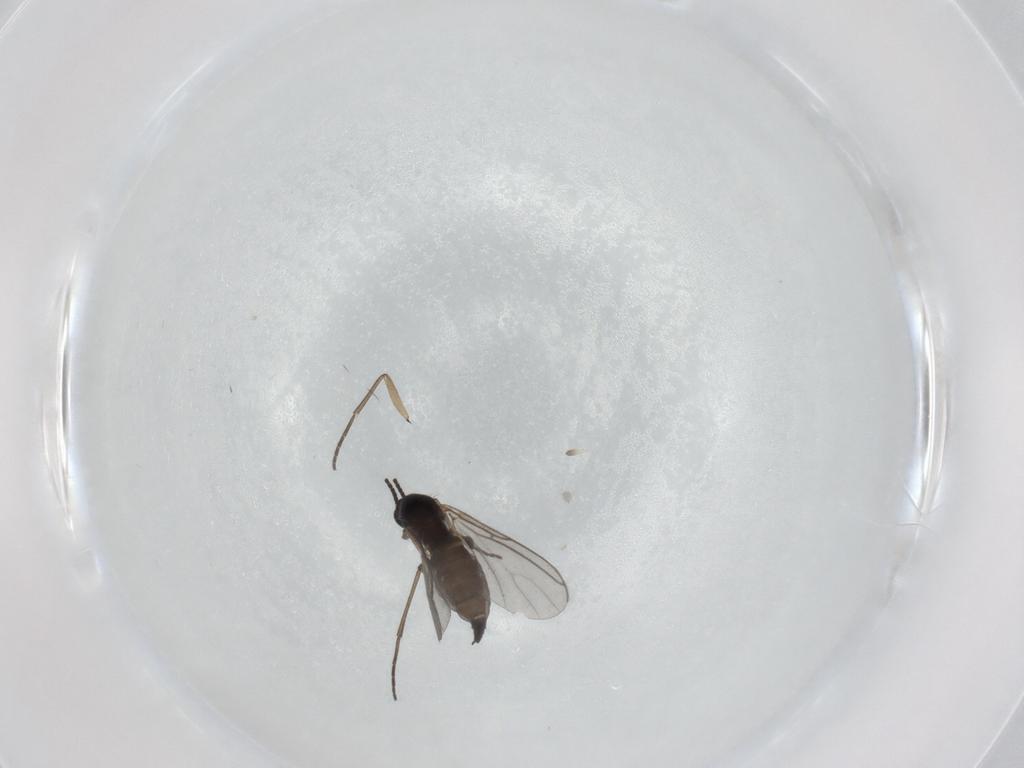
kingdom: Animalia
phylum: Arthropoda
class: Insecta
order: Diptera
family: Sciaridae
